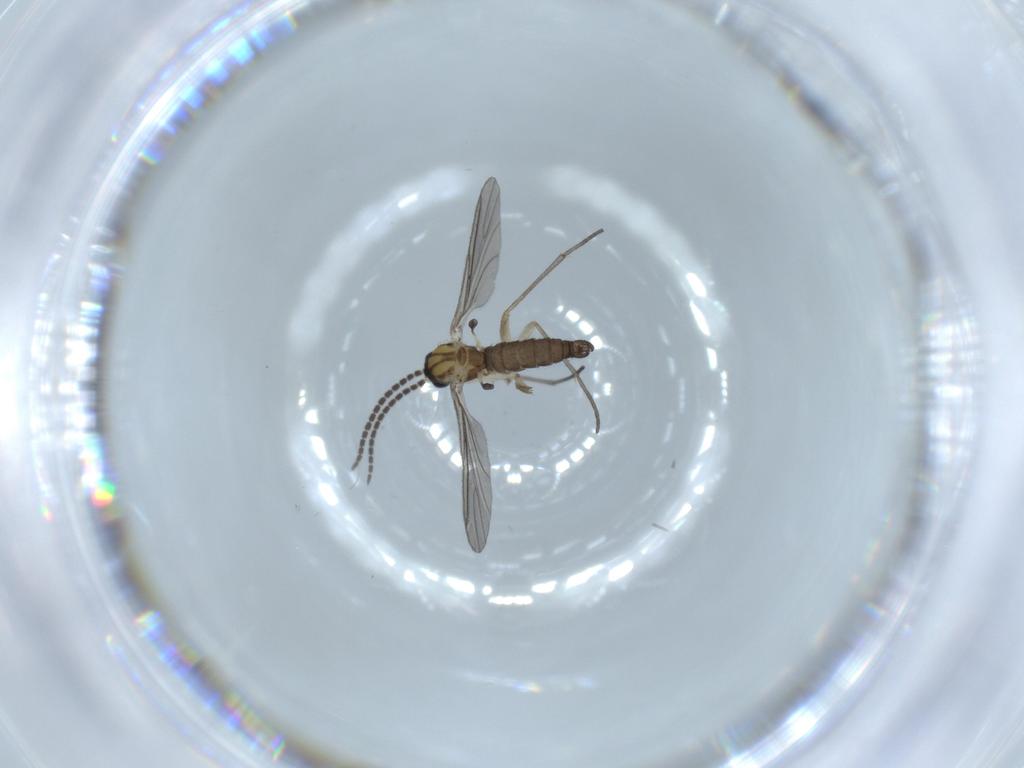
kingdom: Animalia
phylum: Arthropoda
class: Insecta
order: Diptera
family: Sciaridae
